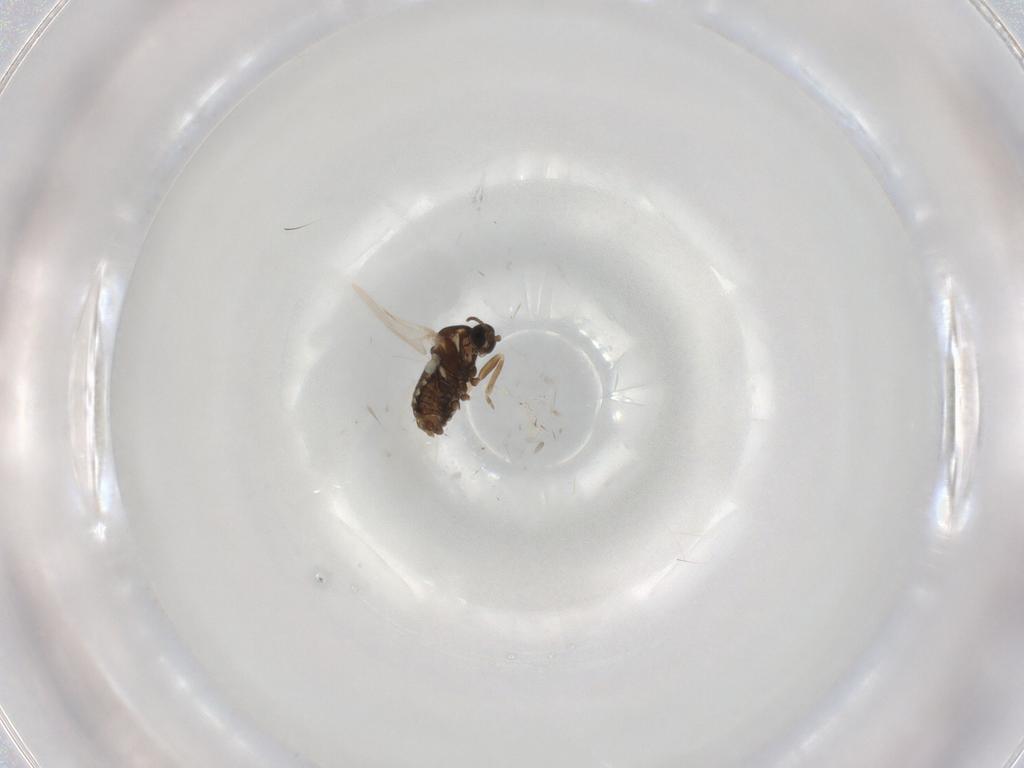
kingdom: Animalia
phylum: Arthropoda
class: Insecta
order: Diptera
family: Cecidomyiidae
